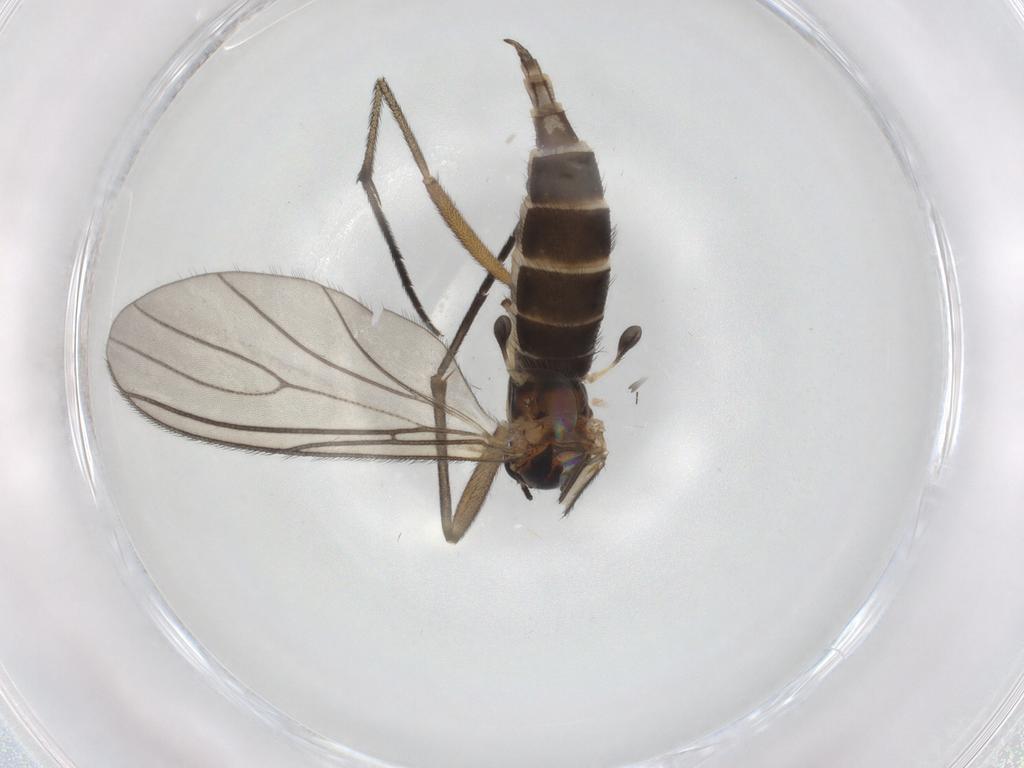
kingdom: Animalia
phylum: Arthropoda
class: Insecta
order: Diptera
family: Sciaridae
